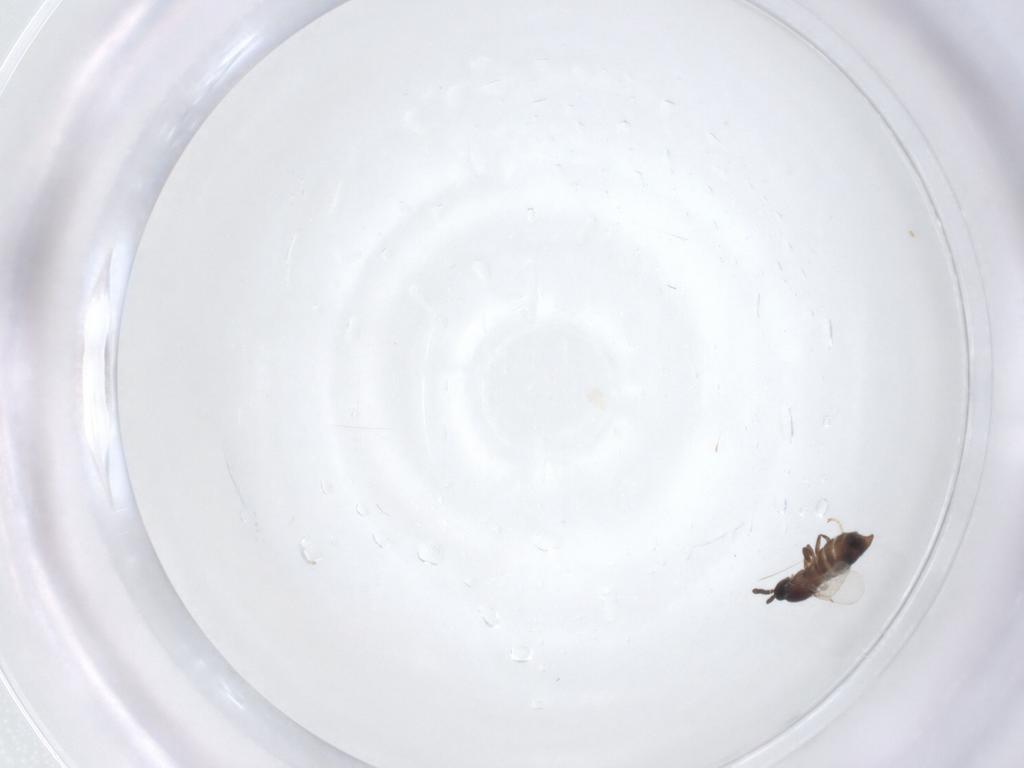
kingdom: Animalia
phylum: Arthropoda
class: Insecta
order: Diptera
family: Scatopsidae
